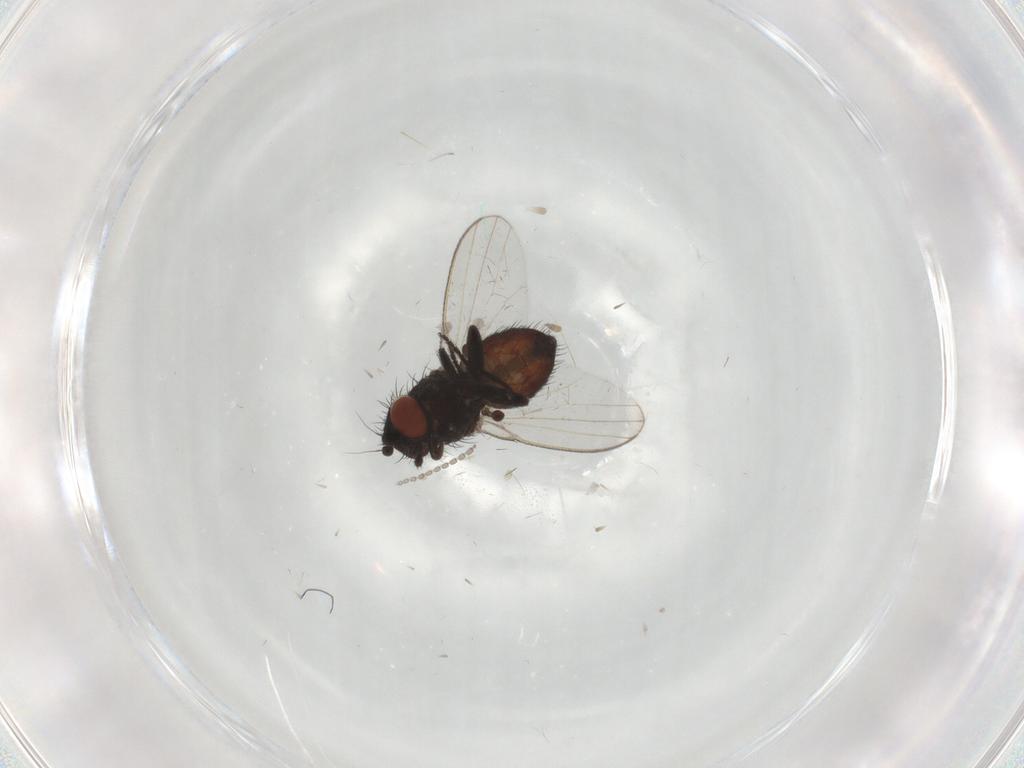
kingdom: Animalia
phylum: Arthropoda
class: Insecta
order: Diptera
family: Cecidomyiidae
